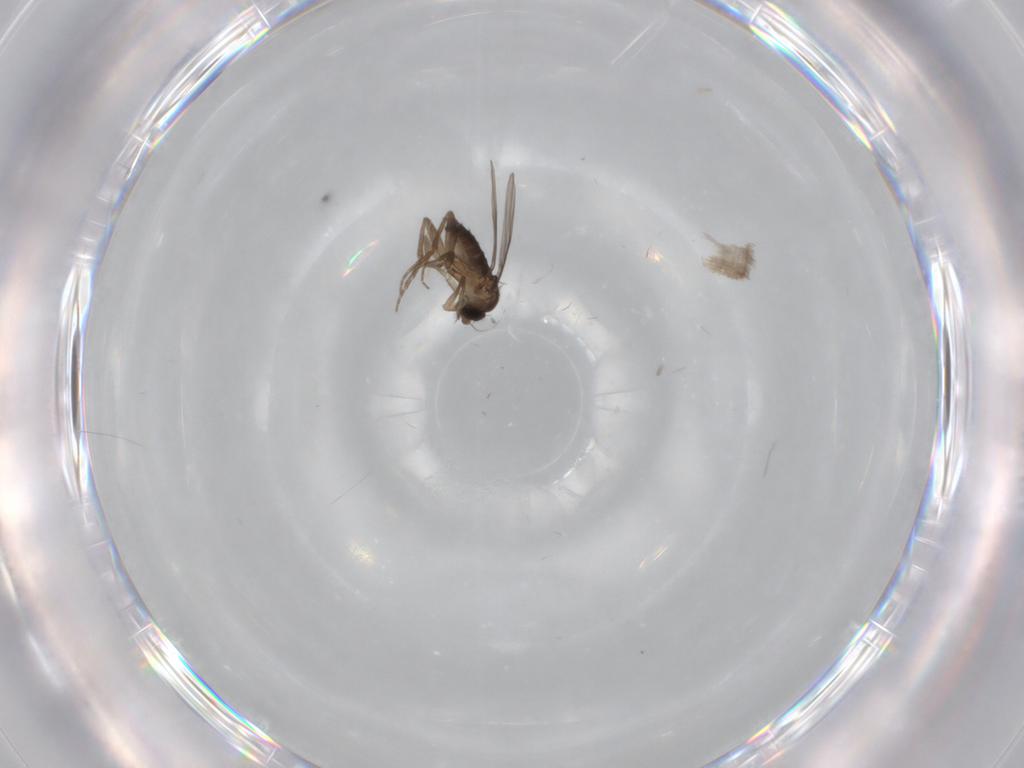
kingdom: Animalia
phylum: Arthropoda
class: Insecta
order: Diptera
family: Phoridae
